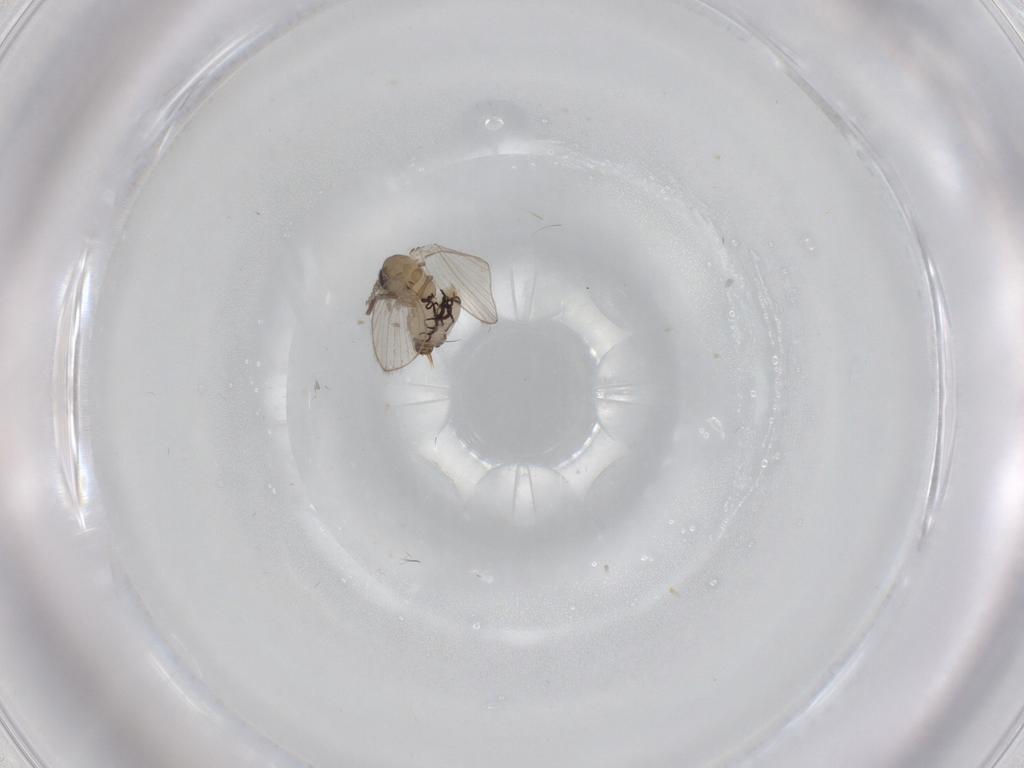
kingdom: Animalia
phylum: Arthropoda
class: Insecta
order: Diptera
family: Psychodidae
